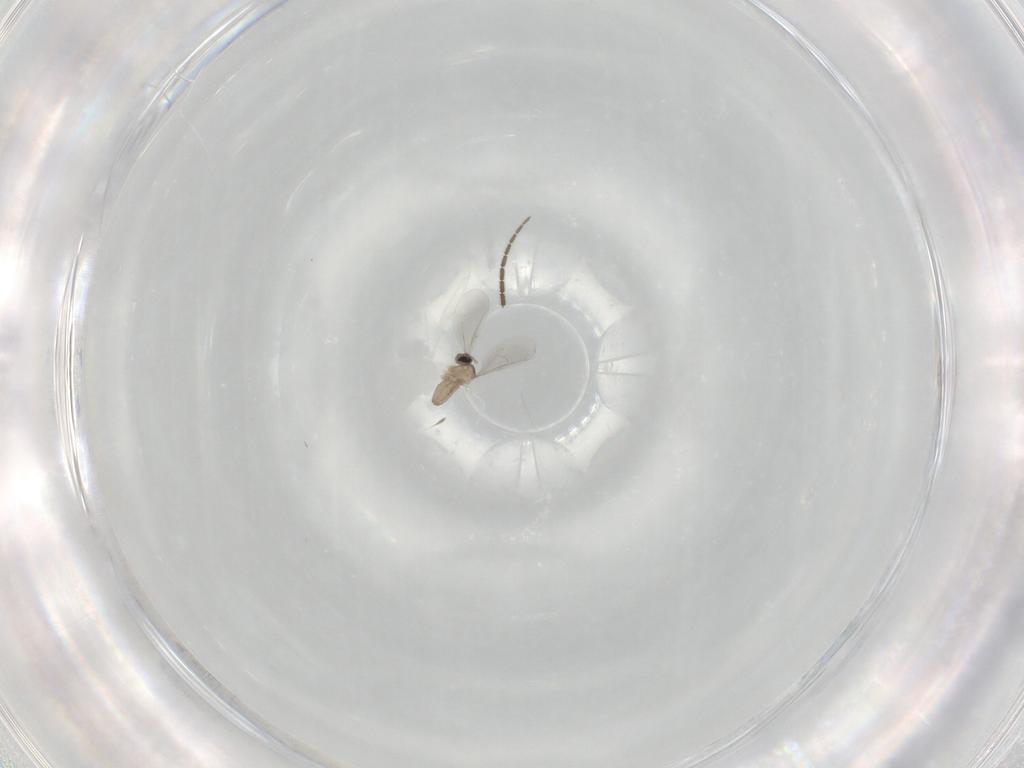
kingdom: Animalia
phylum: Arthropoda
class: Insecta
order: Diptera
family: Sciaridae
